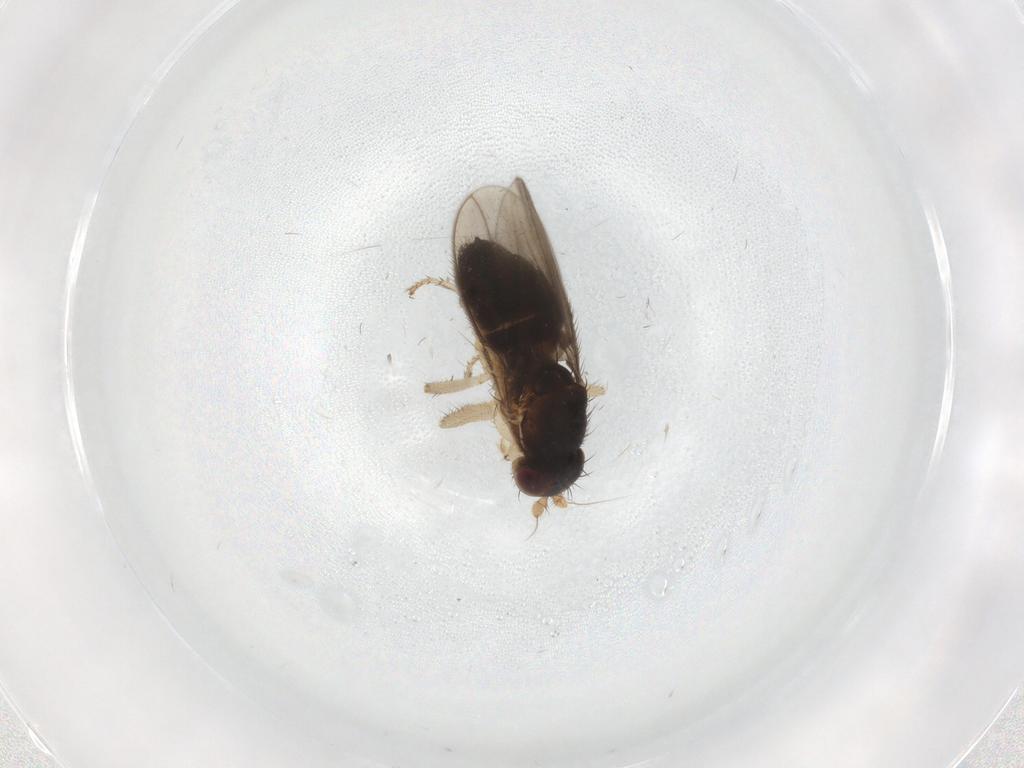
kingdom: Animalia
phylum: Arthropoda
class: Insecta
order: Diptera
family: Sphaeroceridae
